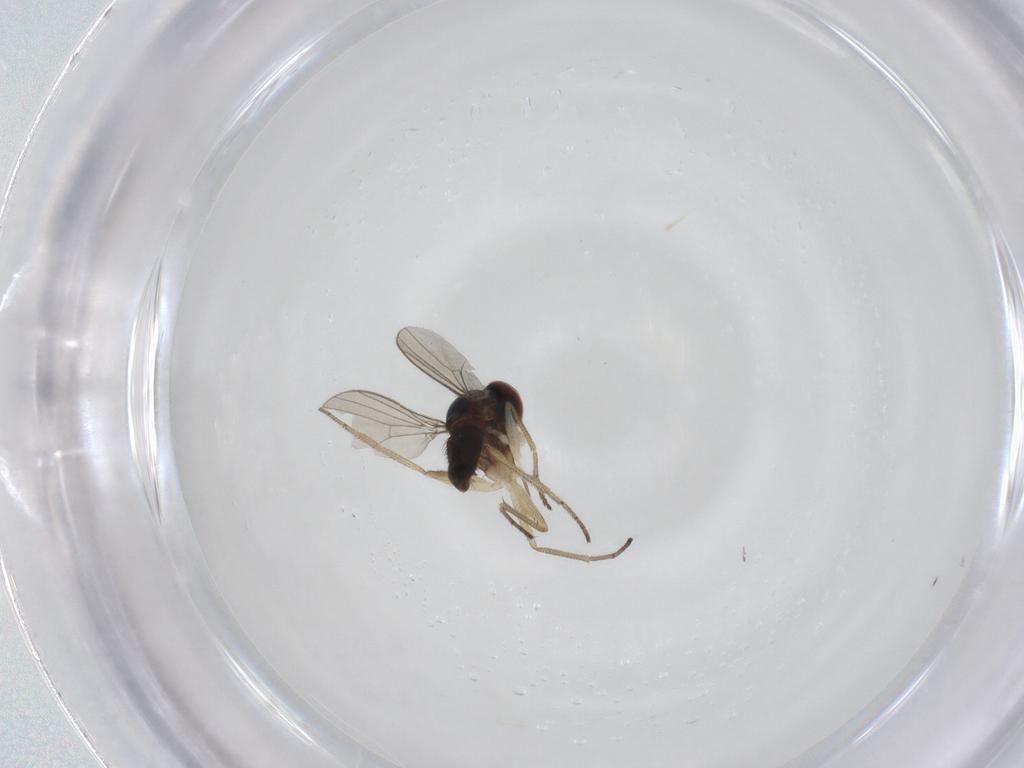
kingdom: Animalia
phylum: Arthropoda
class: Insecta
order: Diptera
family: Dolichopodidae
